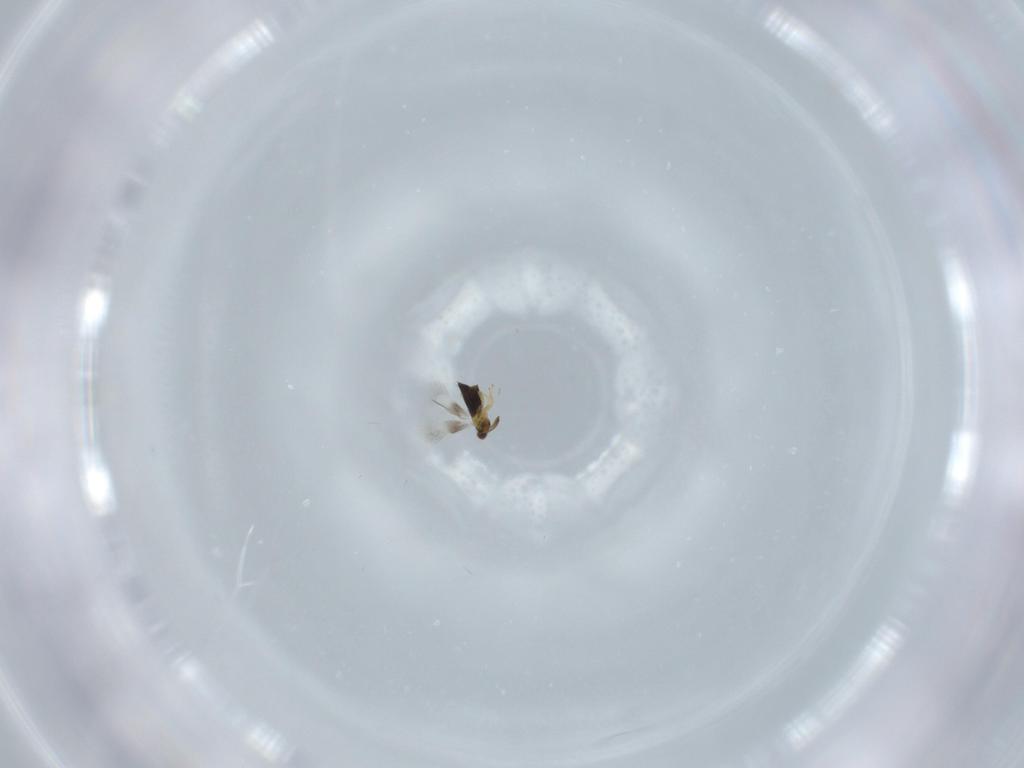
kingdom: Animalia
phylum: Arthropoda
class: Insecta
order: Hymenoptera
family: Dryinidae
